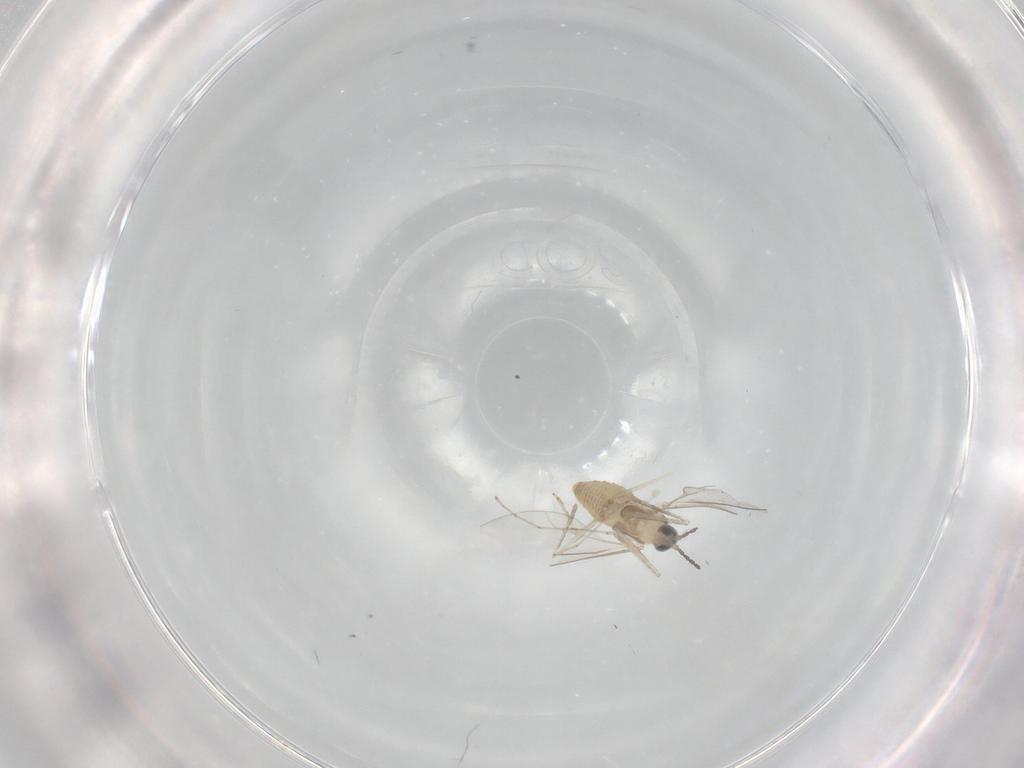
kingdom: Animalia
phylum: Arthropoda
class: Insecta
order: Diptera
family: Cecidomyiidae
